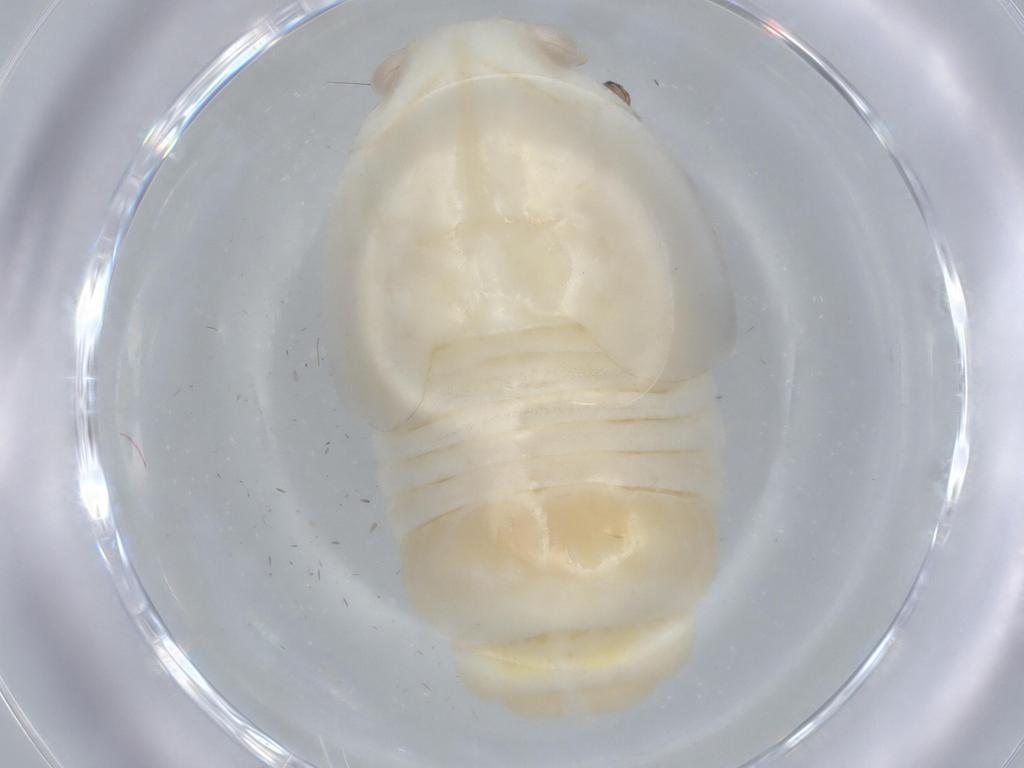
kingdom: Animalia
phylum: Arthropoda
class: Insecta
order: Hemiptera
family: Flatidae
